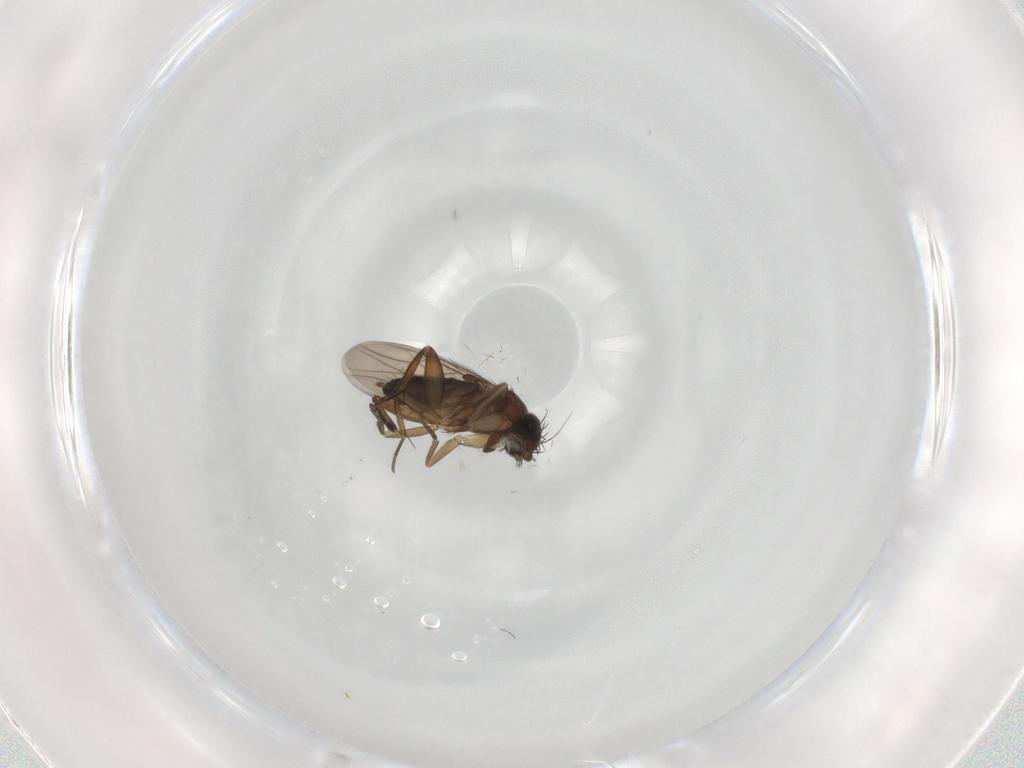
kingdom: Animalia
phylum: Arthropoda
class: Insecta
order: Diptera
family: Phoridae
